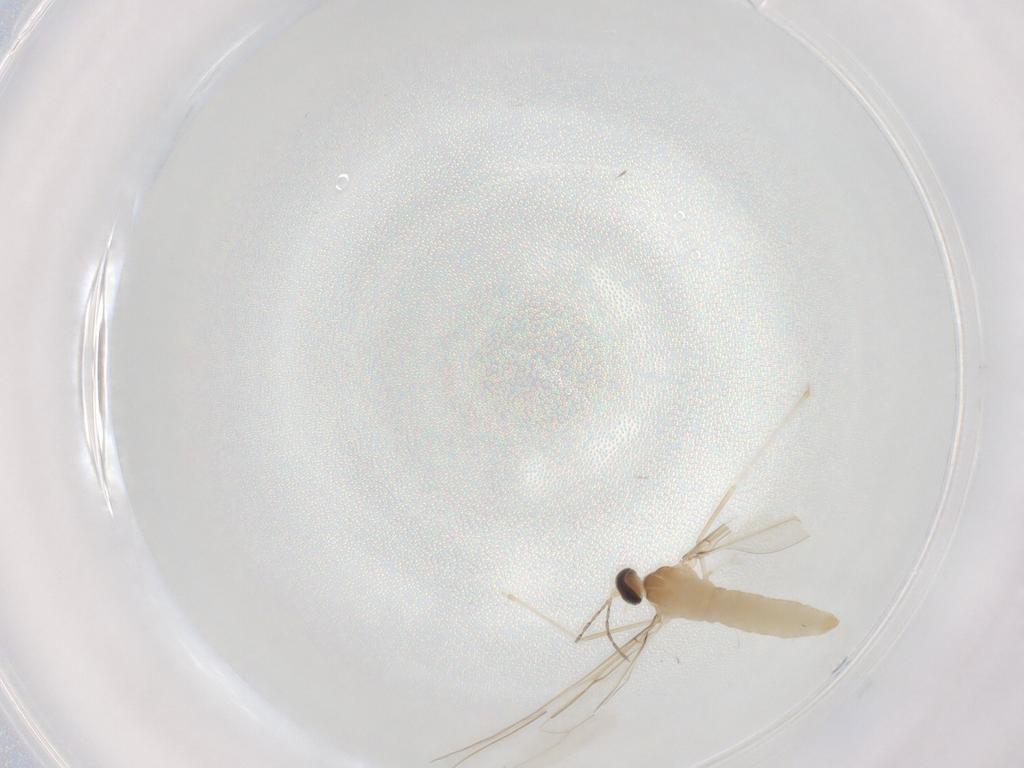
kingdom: Animalia
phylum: Arthropoda
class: Insecta
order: Diptera
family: Cecidomyiidae
